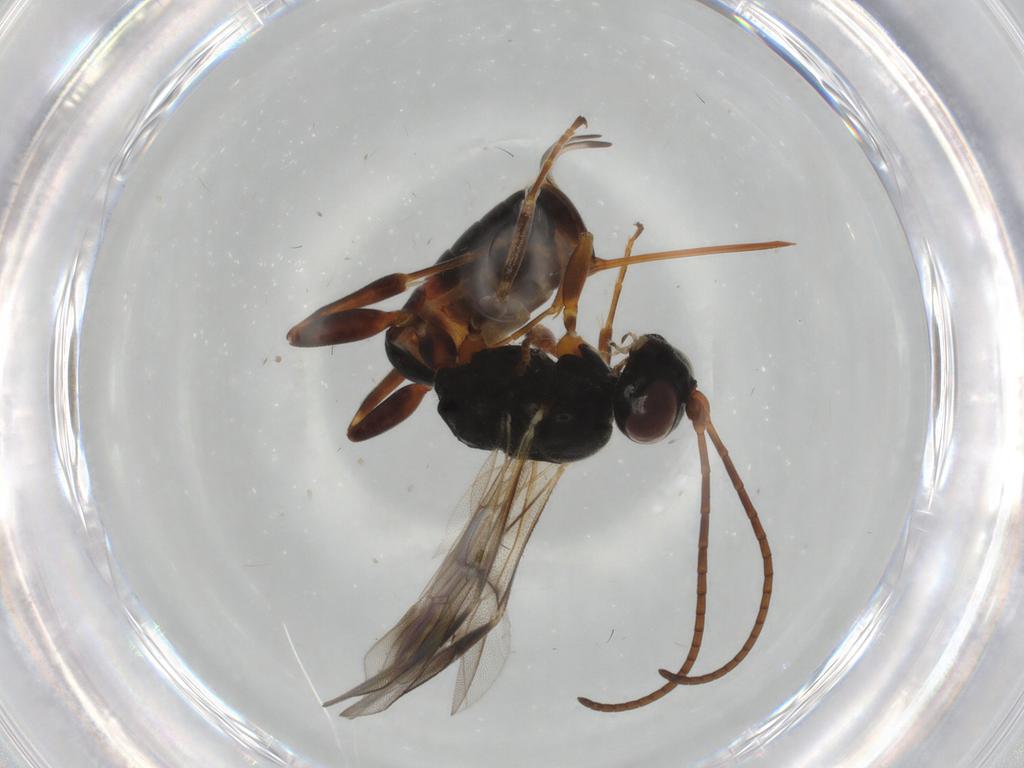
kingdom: Animalia
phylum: Arthropoda
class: Insecta
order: Hymenoptera
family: Ichneumonidae
